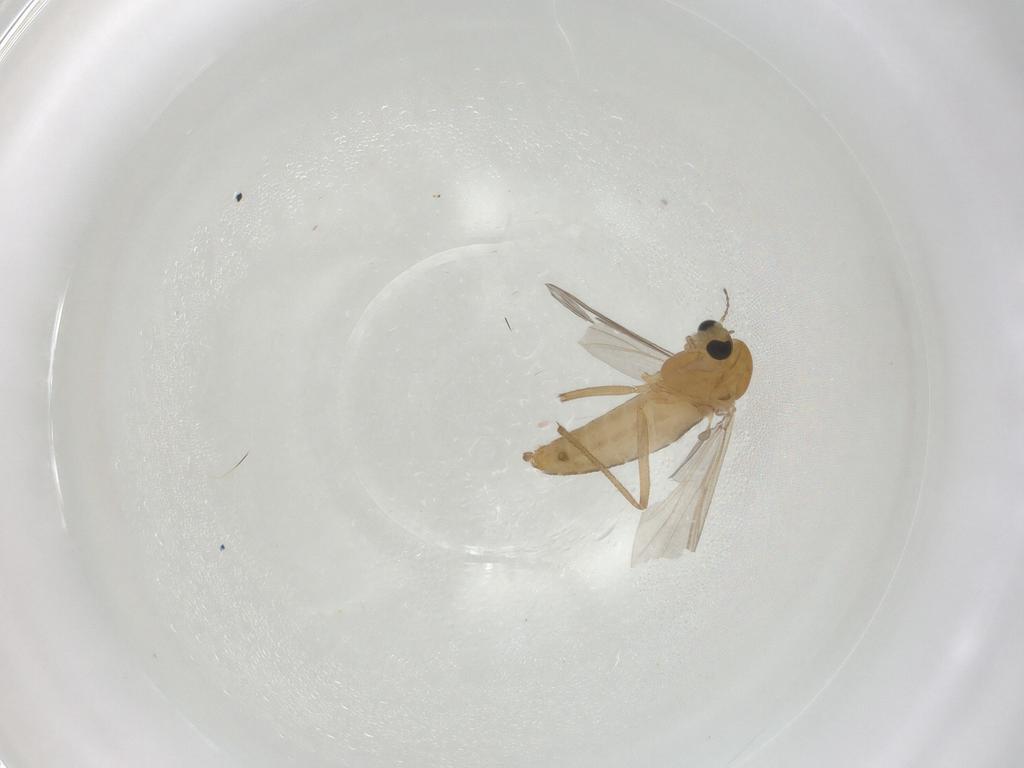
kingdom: Animalia
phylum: Arthropoda
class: Insecta
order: Diptera
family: Chironomidae
